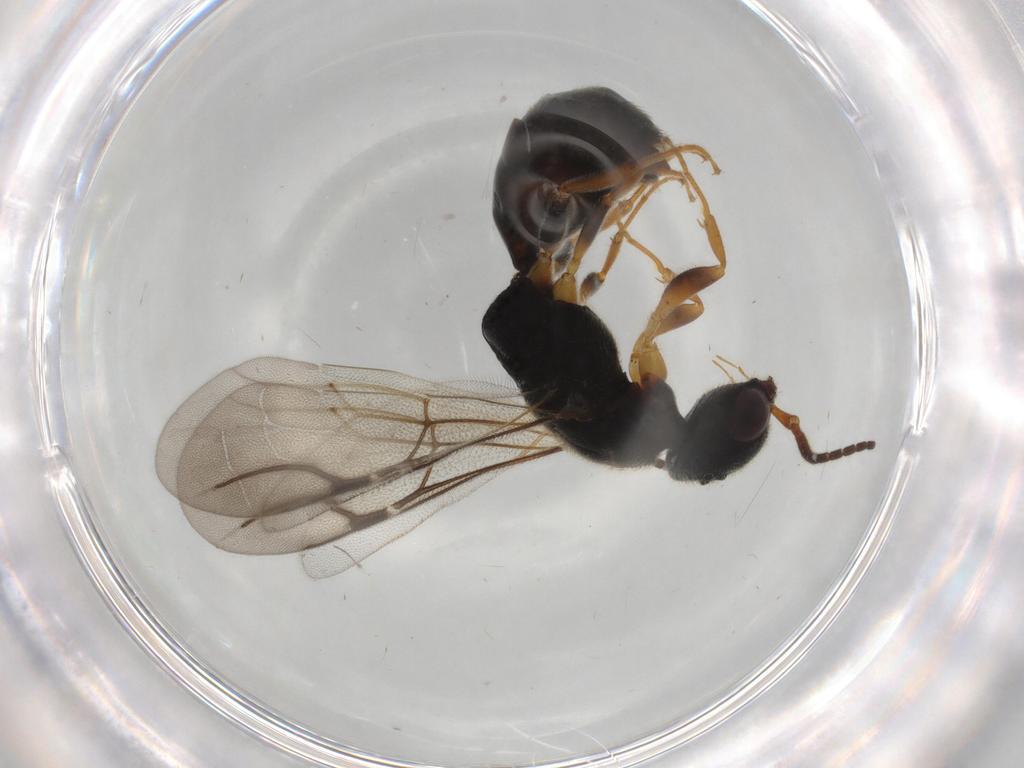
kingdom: Animalia
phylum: Arthropoda
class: Insecta
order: Hymenoptera
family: Bethylidae
